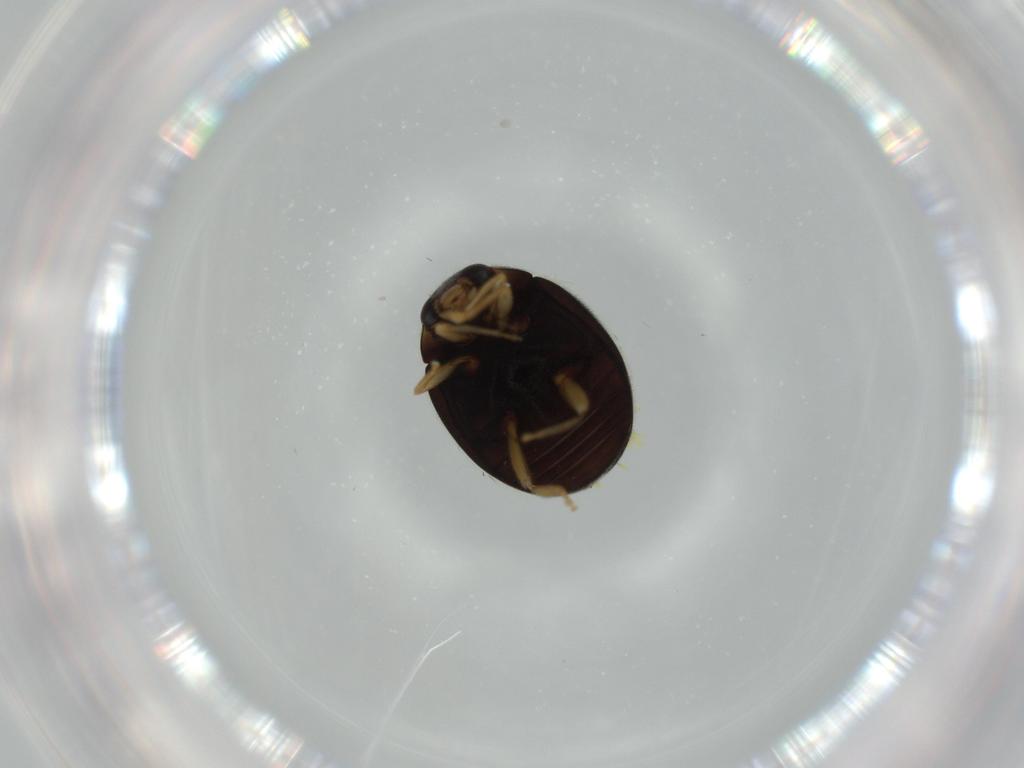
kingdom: Animalia
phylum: Arthropoda
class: Insecta
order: Coleoptera
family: Coccinellidae
